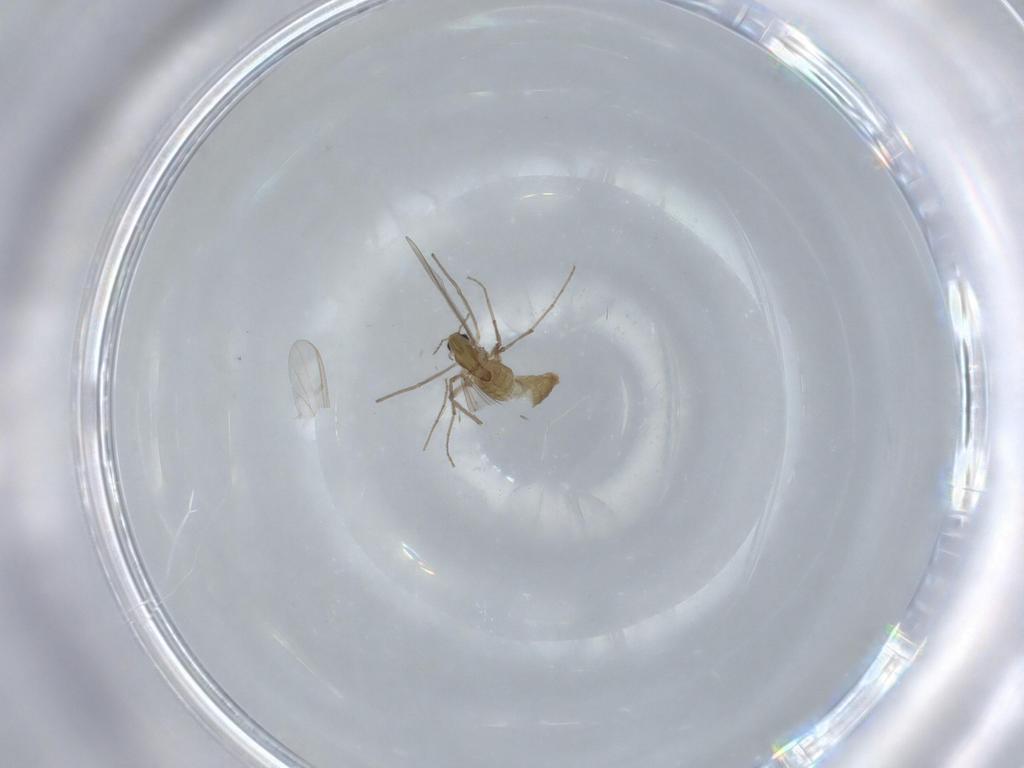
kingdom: Animalia
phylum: Arthropoda
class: Insecta
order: Diptera
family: Chironomidae
